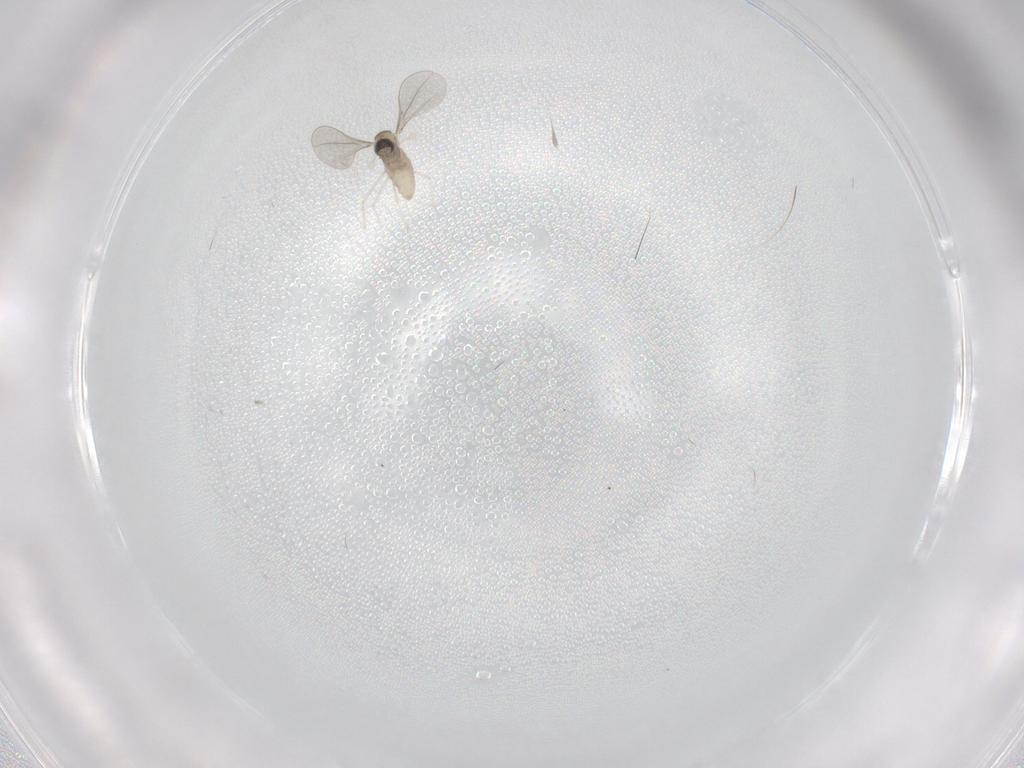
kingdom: Animalia
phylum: Arthropoda
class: Insecta
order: Diptera
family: Cecidomyiidae
